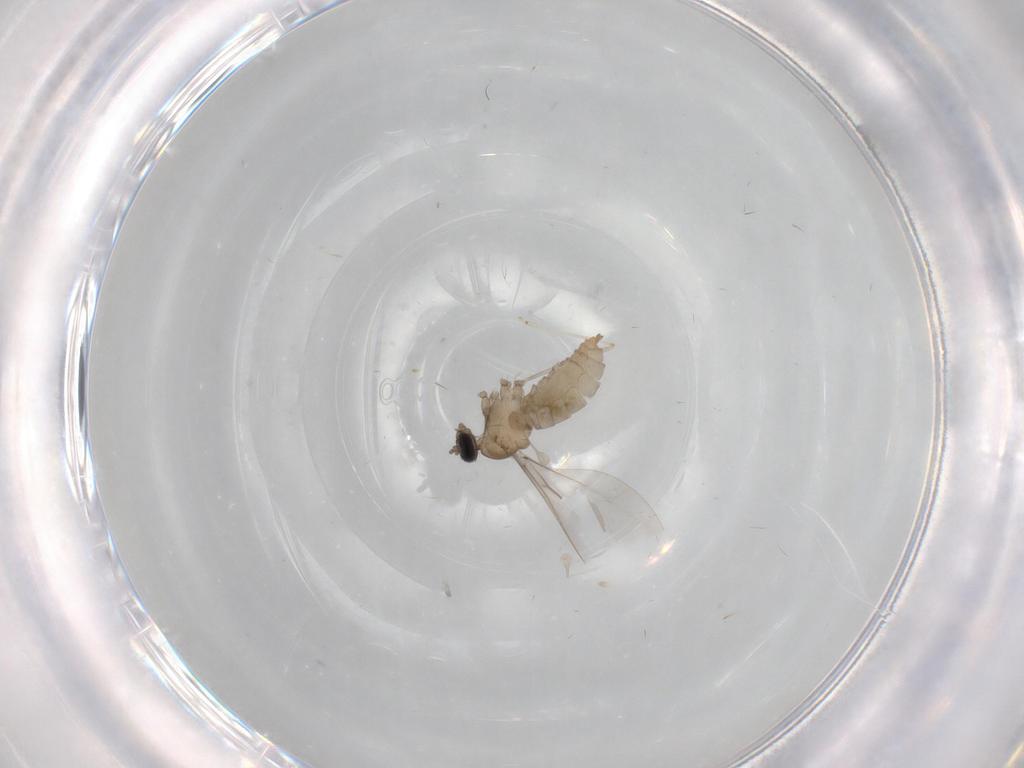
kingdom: Animalia
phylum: Arthropoda
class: Insecta
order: Diptera
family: Cecidomyiidae
